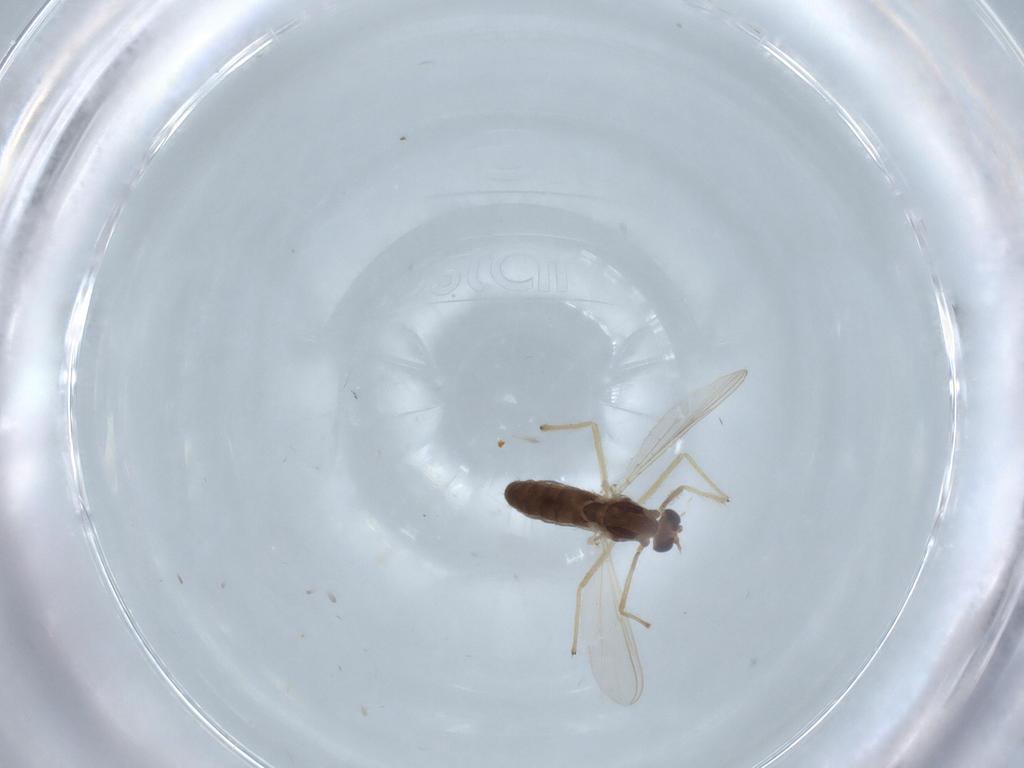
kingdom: Animalia
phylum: Arthropoda
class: Insecta
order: Diptera
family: Chironomidae
